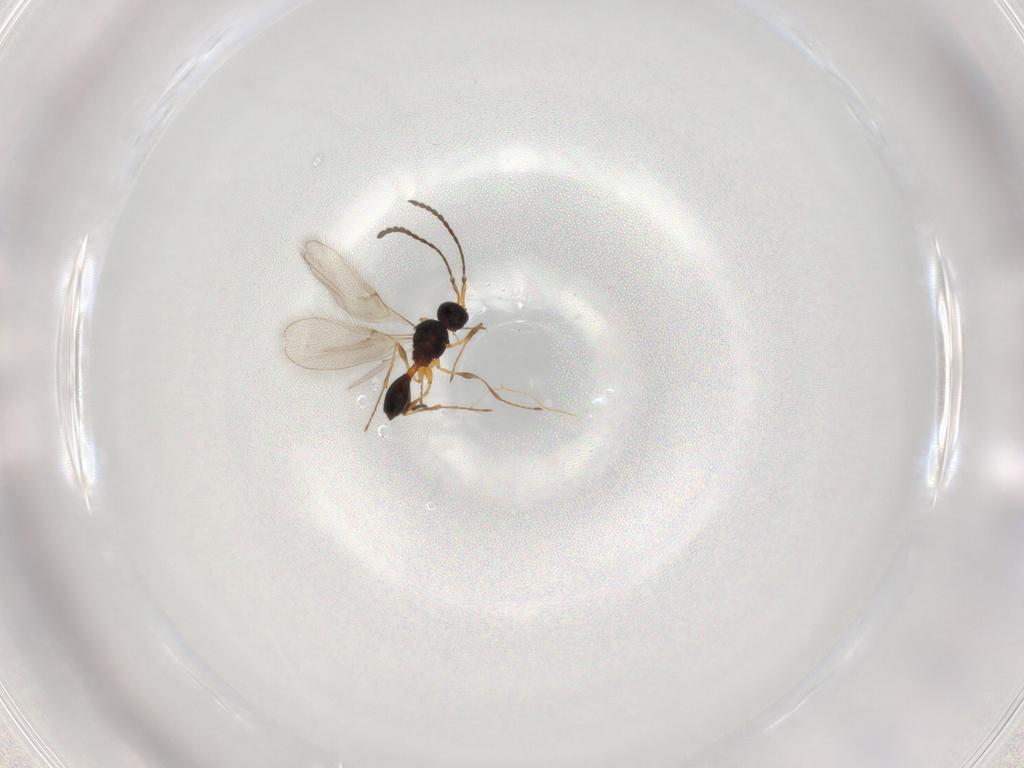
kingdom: Animalia
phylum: Arthropoda
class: Insecta
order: Hymenoptera
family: Diapriidae
